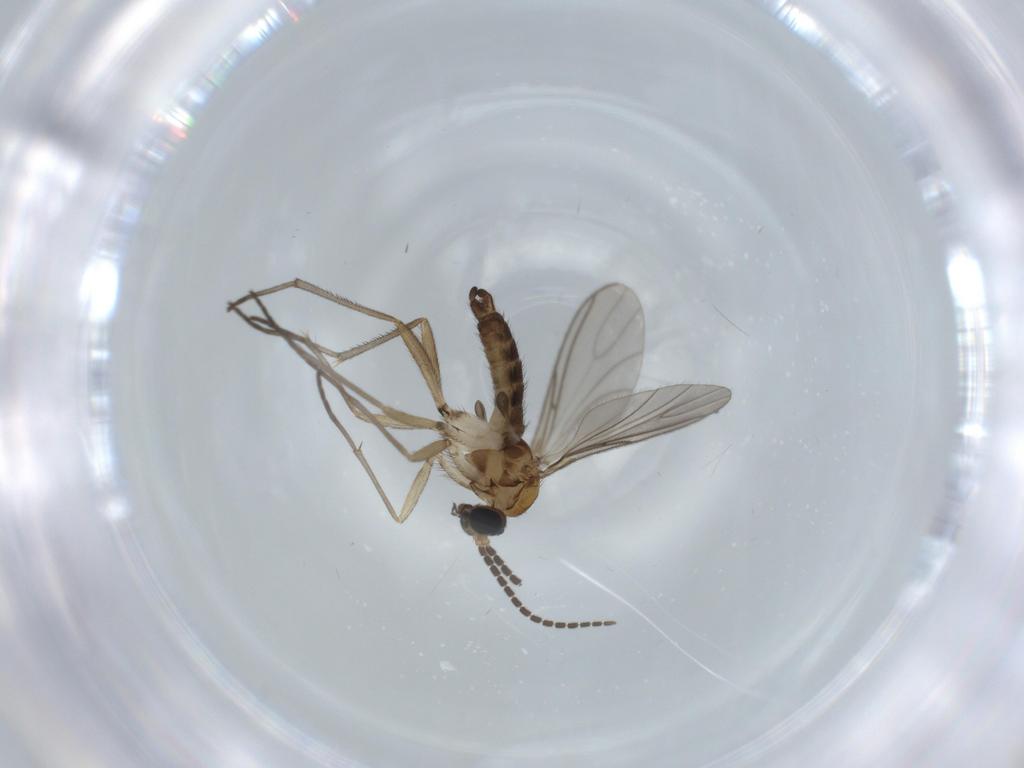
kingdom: Animalia
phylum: Arthropoda
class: Insecta
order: Diptera
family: Sciaridae
